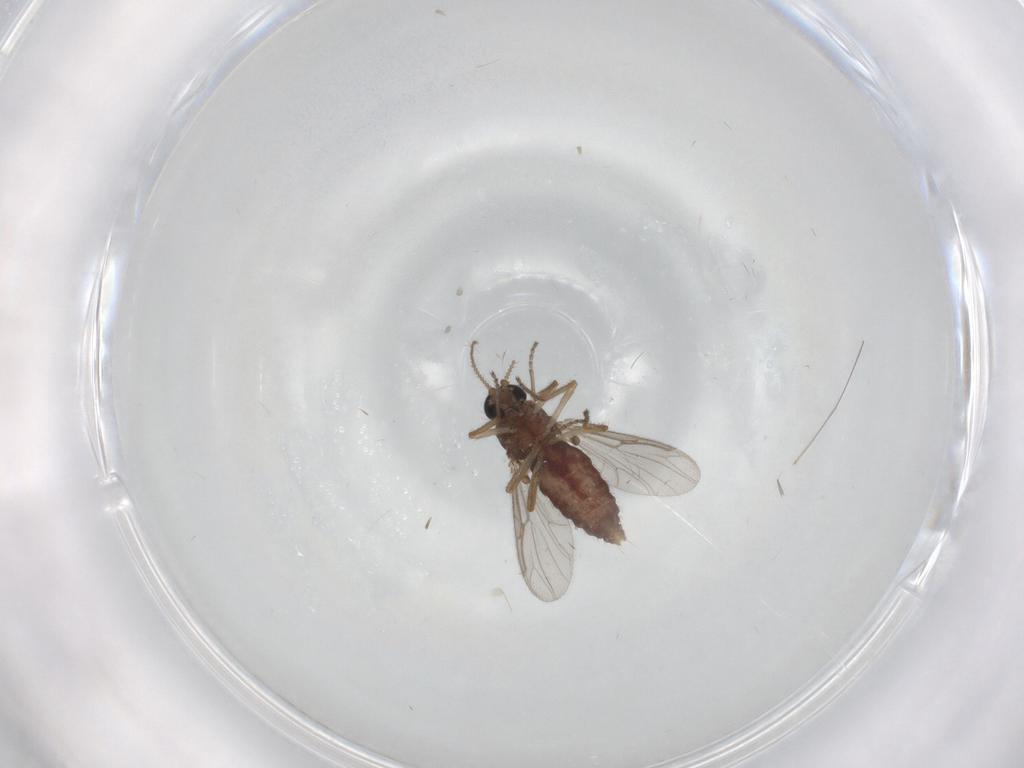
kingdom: Animalia
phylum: Arthropoda
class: Insecta
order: Diptera
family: Ceratopogonidae
